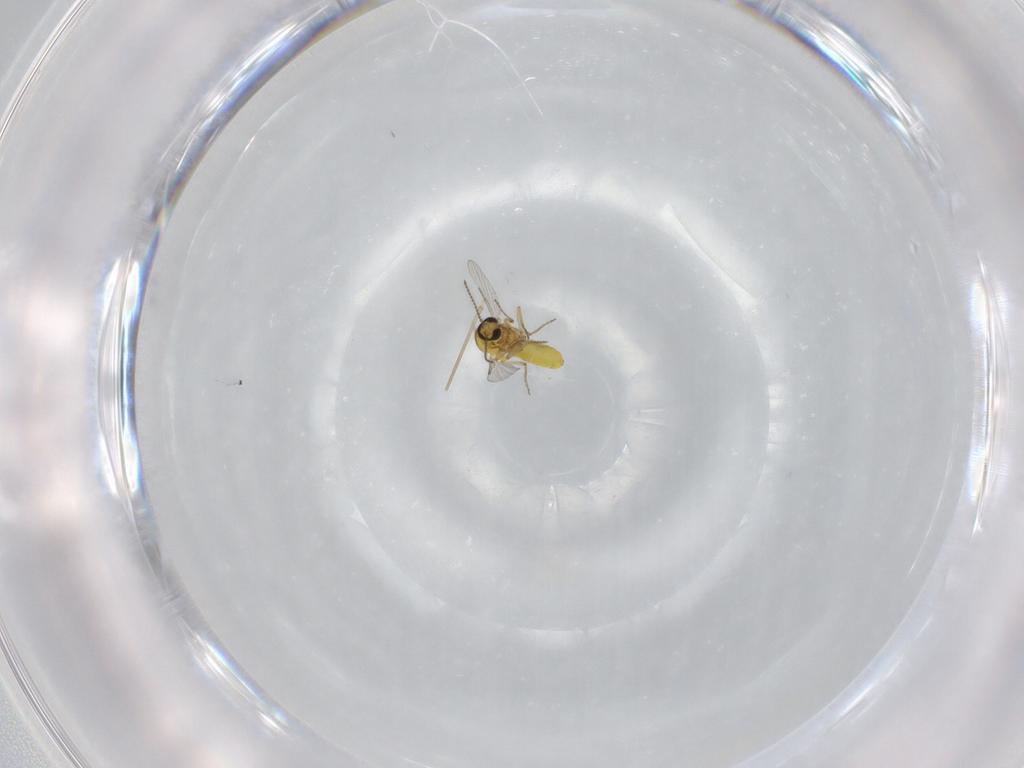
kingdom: Animalia
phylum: Arthropoda
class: Insecta
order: Diptera
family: Ceratopogonidae
